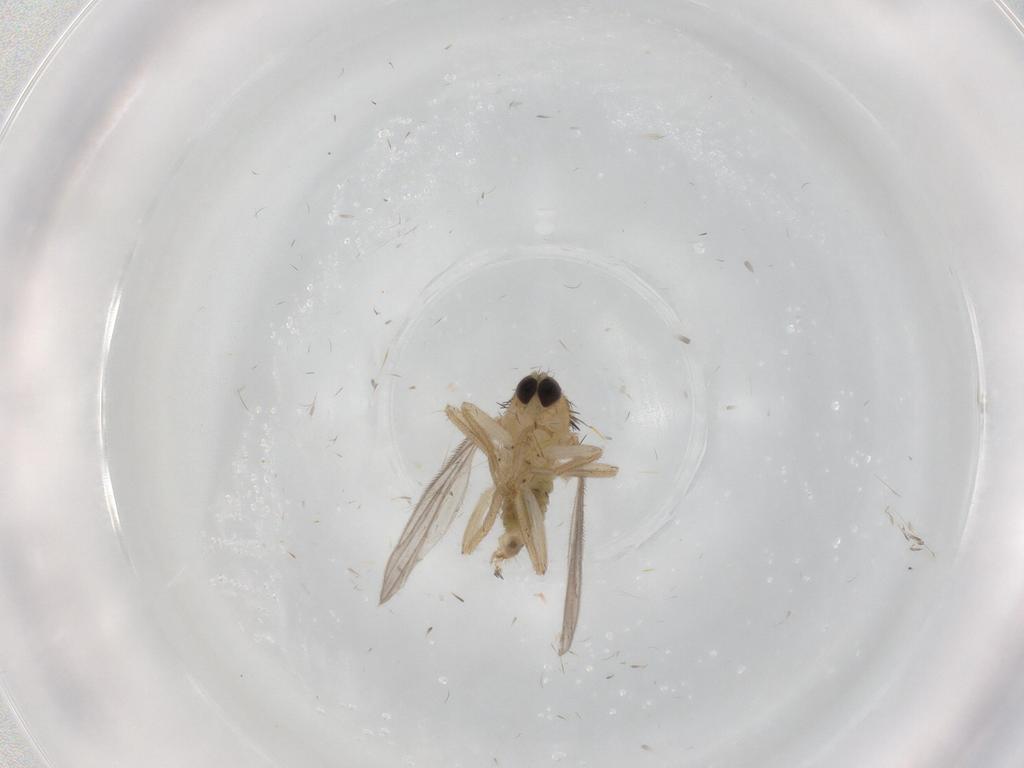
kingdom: Animalia
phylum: Arthropoda
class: Insecta
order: Diptera
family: Hybotidae
